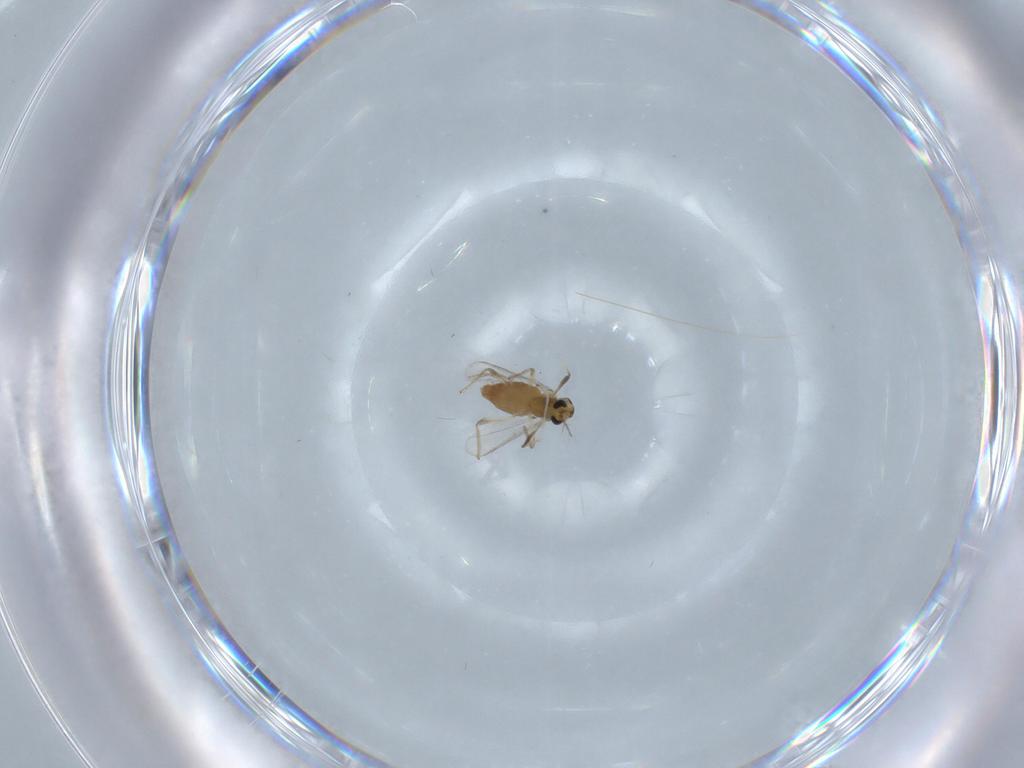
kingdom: Animalia
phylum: Arthropoda
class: Insecta
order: Diptera
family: Chironomidae
